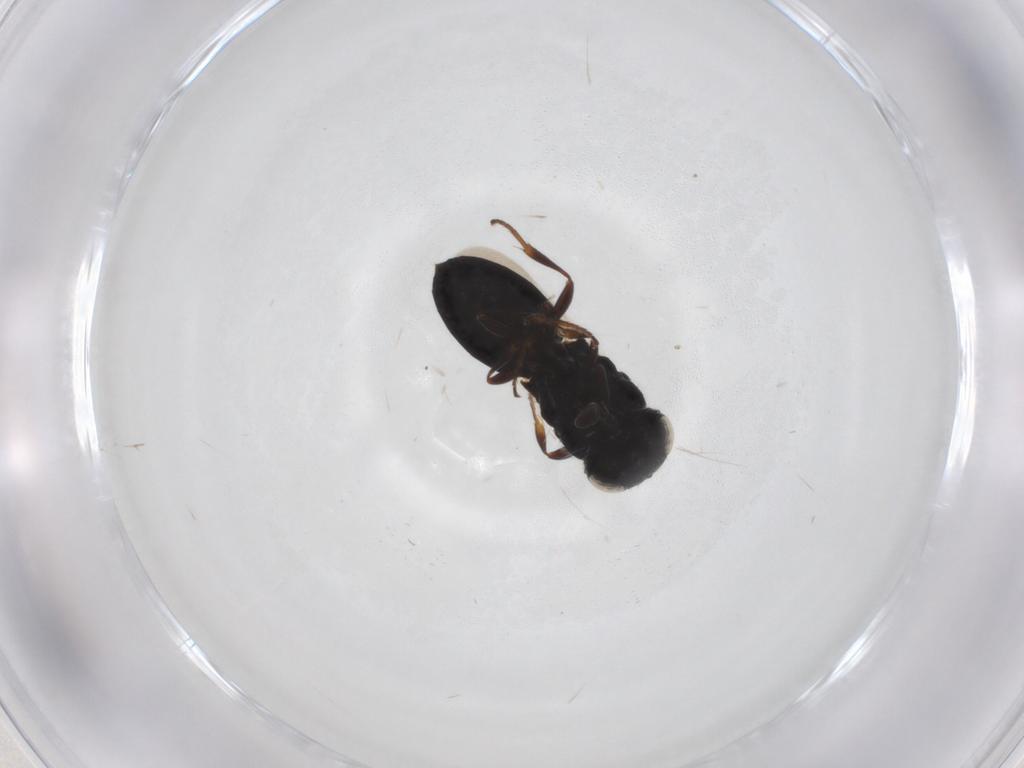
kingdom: Animalia
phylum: Arthropoda
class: Insecta
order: Hymenoptera
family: Scelionidae
